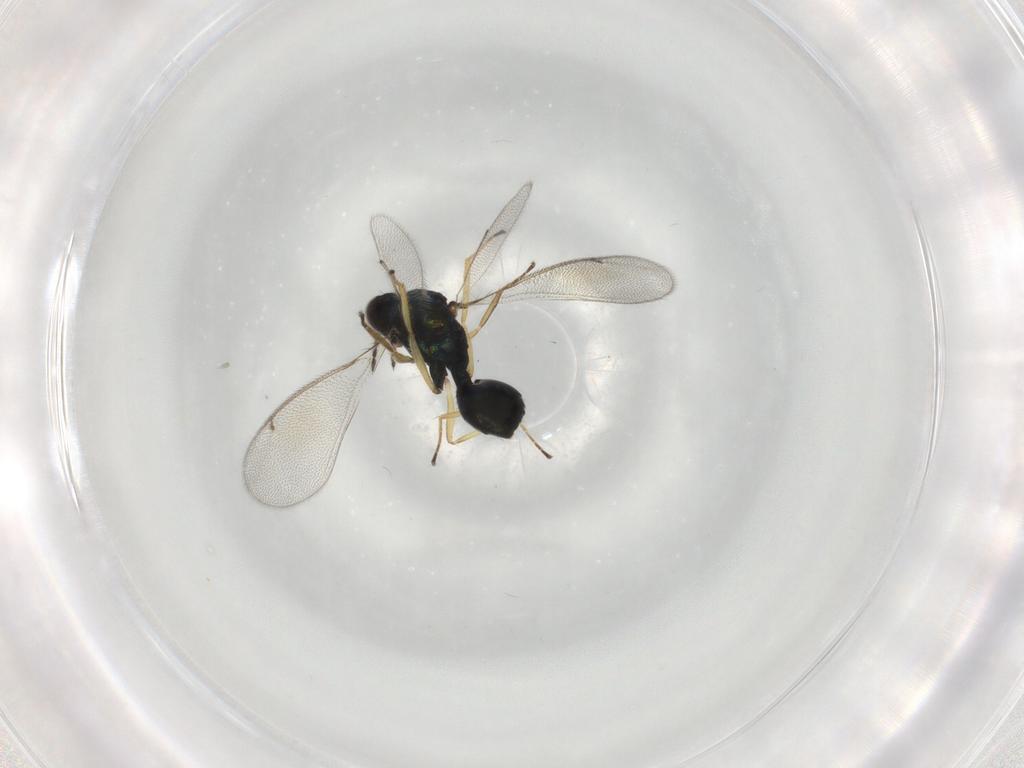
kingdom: Animalia
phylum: Arthropoda
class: Insecta
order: Hymenoptera
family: Eulophidae
